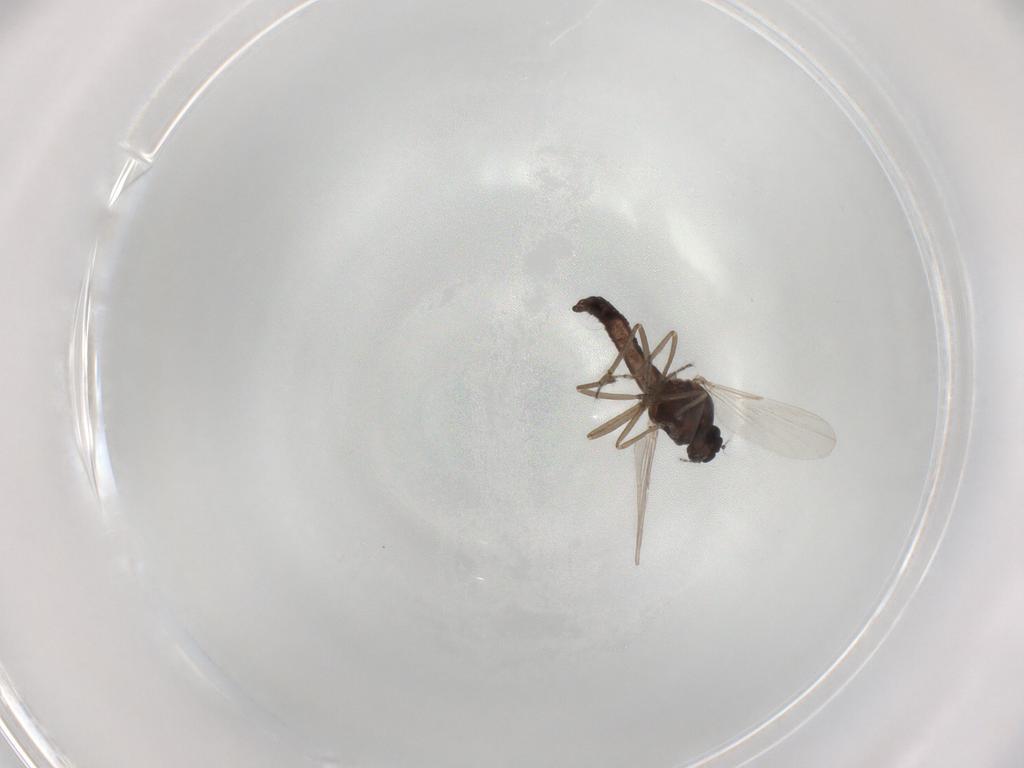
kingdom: Animalia
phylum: Arthropoda
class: Insecta
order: Diptera
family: Ceratopogonidae
